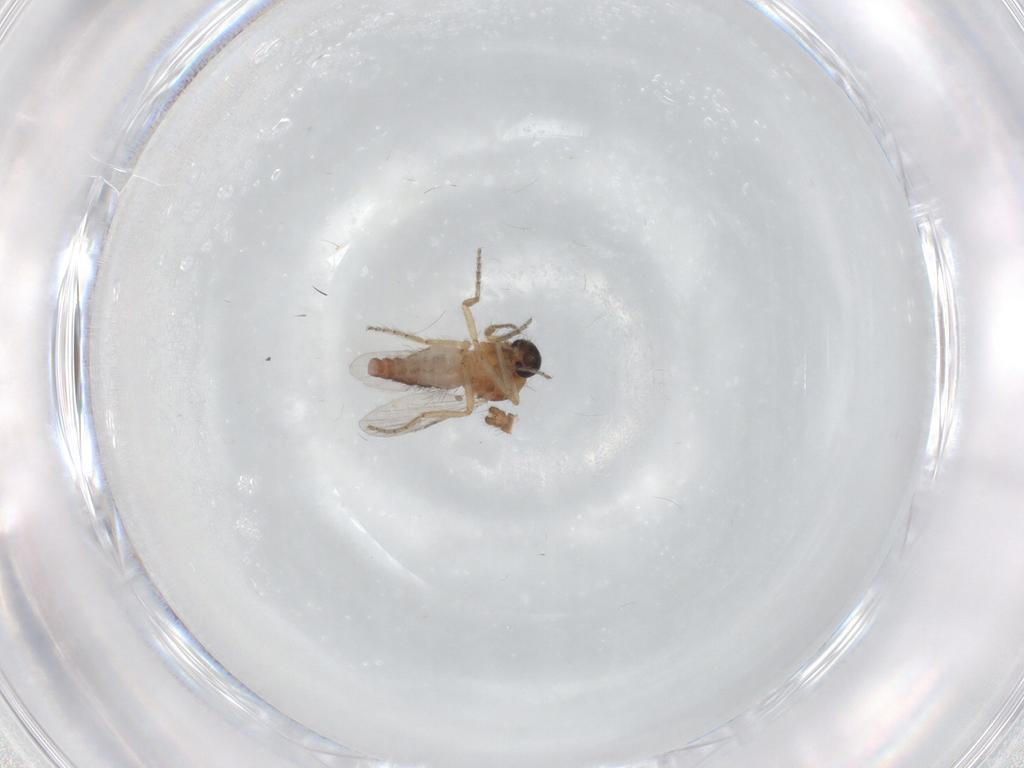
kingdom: Animalia
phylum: Arthropoda
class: Insecta
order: Diptera
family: Ceratopogonidae
